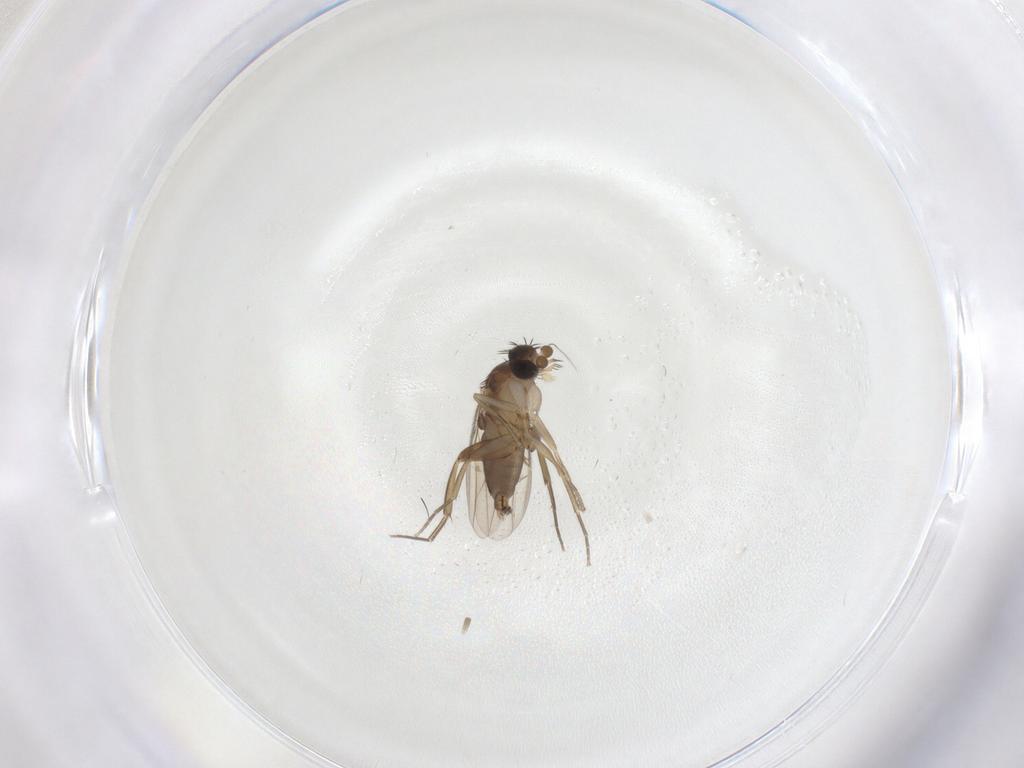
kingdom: Animalia
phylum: Arthropoda
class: Insecta
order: Diptera
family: Phoridae
